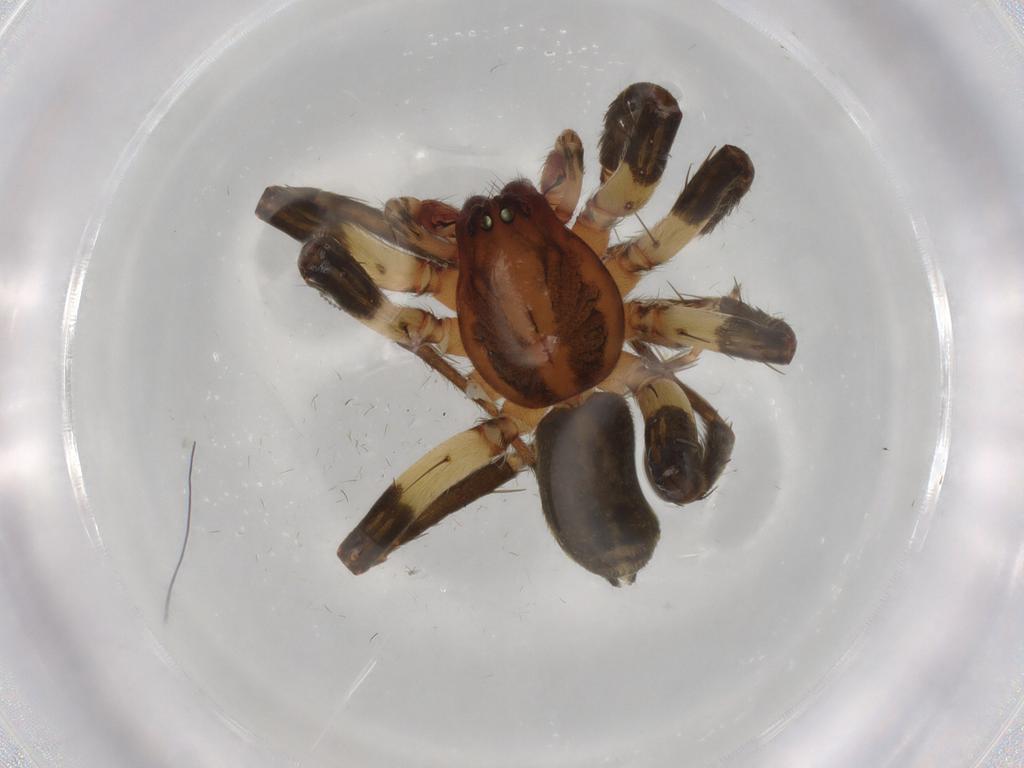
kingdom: Animalia
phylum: Arthropoda
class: Arachnida
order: Araneae
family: Anyphaenidae
